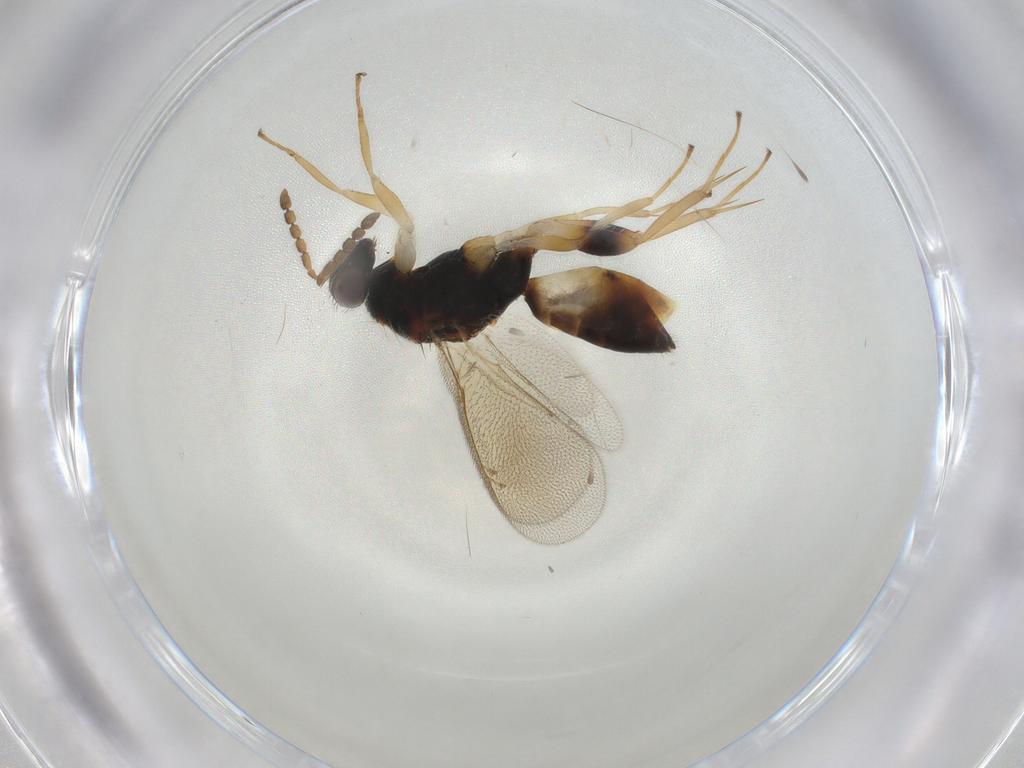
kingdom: Animalia
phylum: Arthropoda
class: Insecta
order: Hymenoptera
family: Eulophidae
